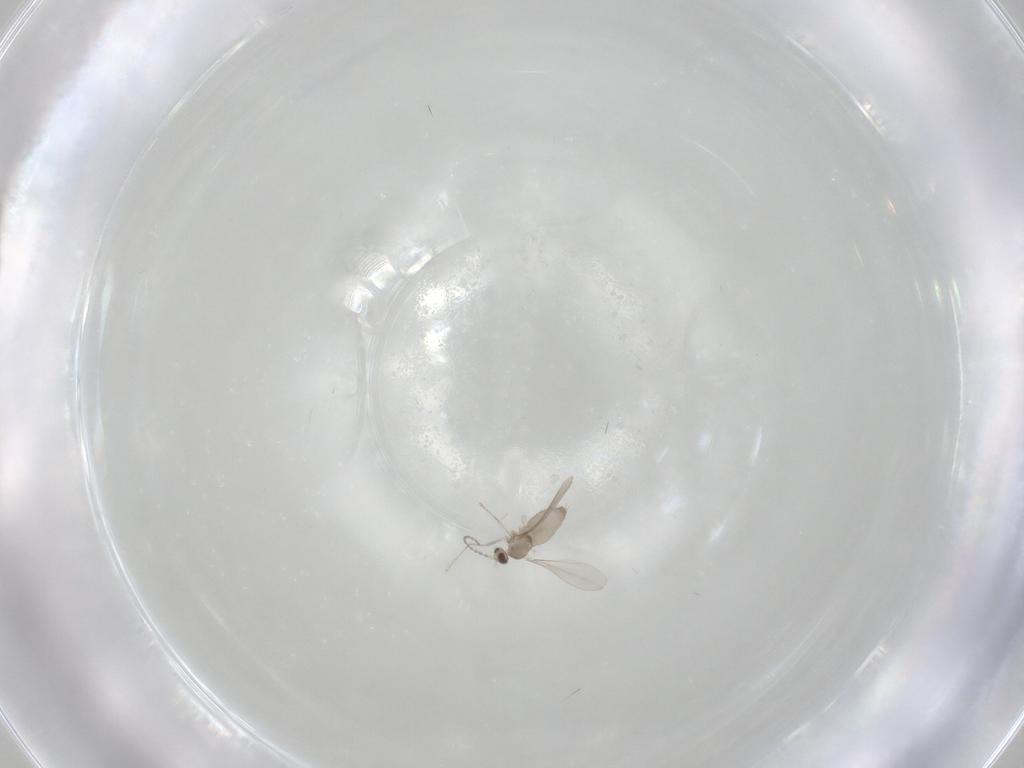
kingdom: Animalia
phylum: Arthropoda
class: Insecta
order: Diptera
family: Cecidomyiidae
